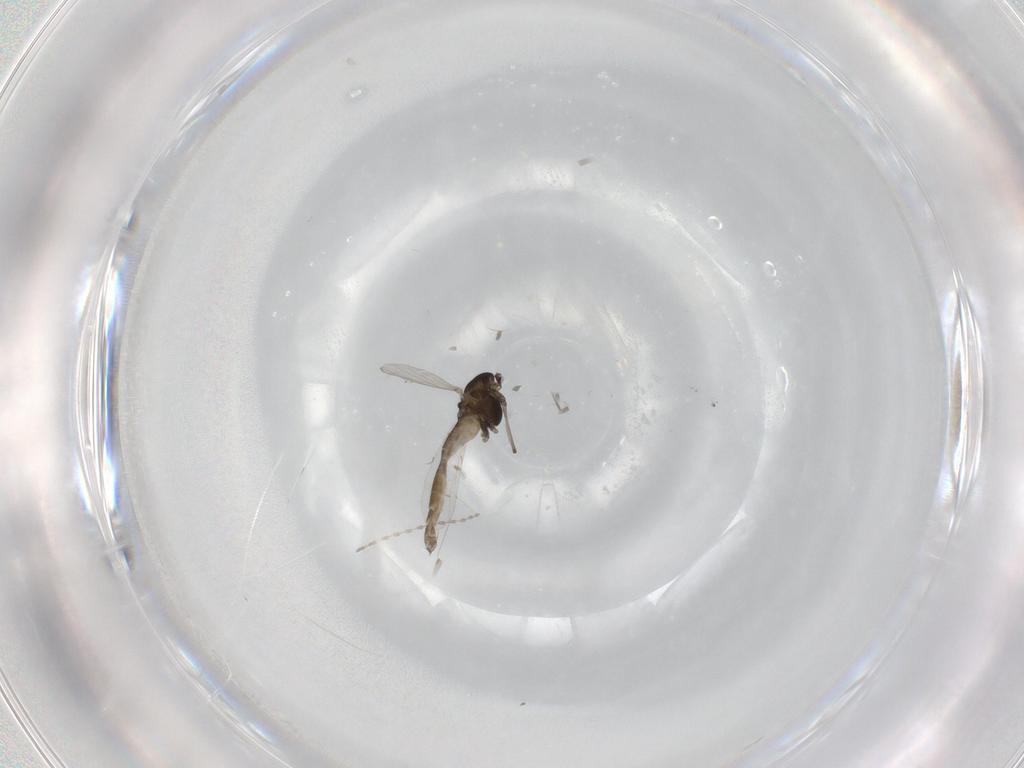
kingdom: Animalia
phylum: Arthropoda
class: Insecta
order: Diptera
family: Cecidomyiidae
